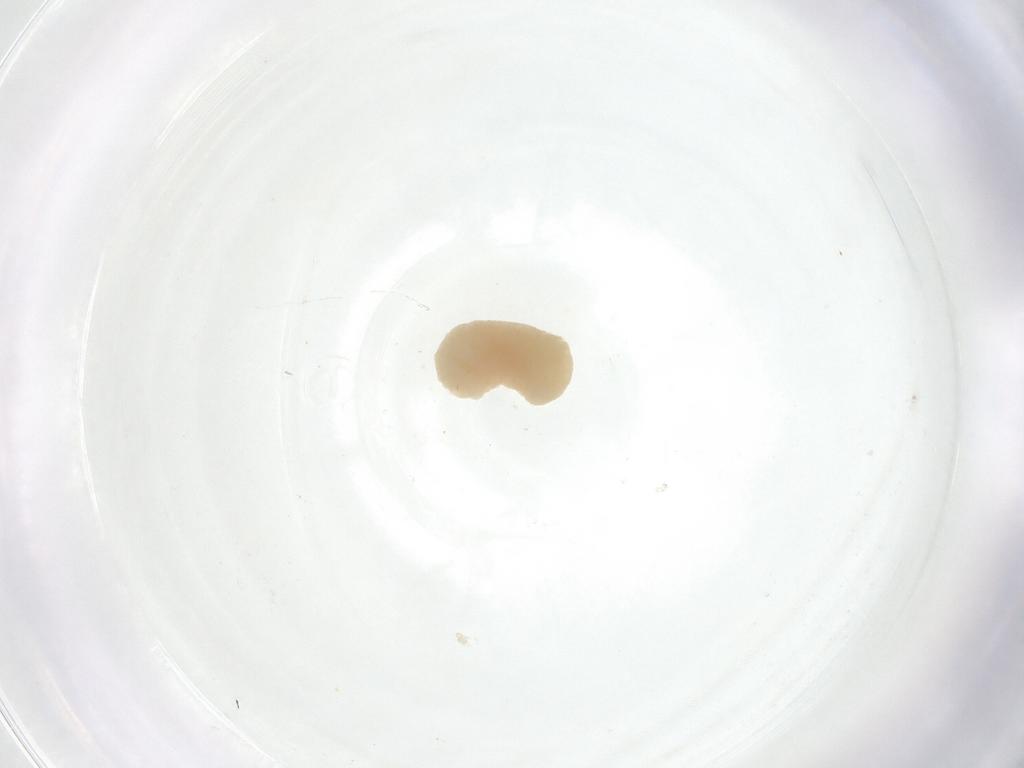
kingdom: Animalia
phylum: Arthropoda
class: Insecta
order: Diptera
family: Fergusoninidae
